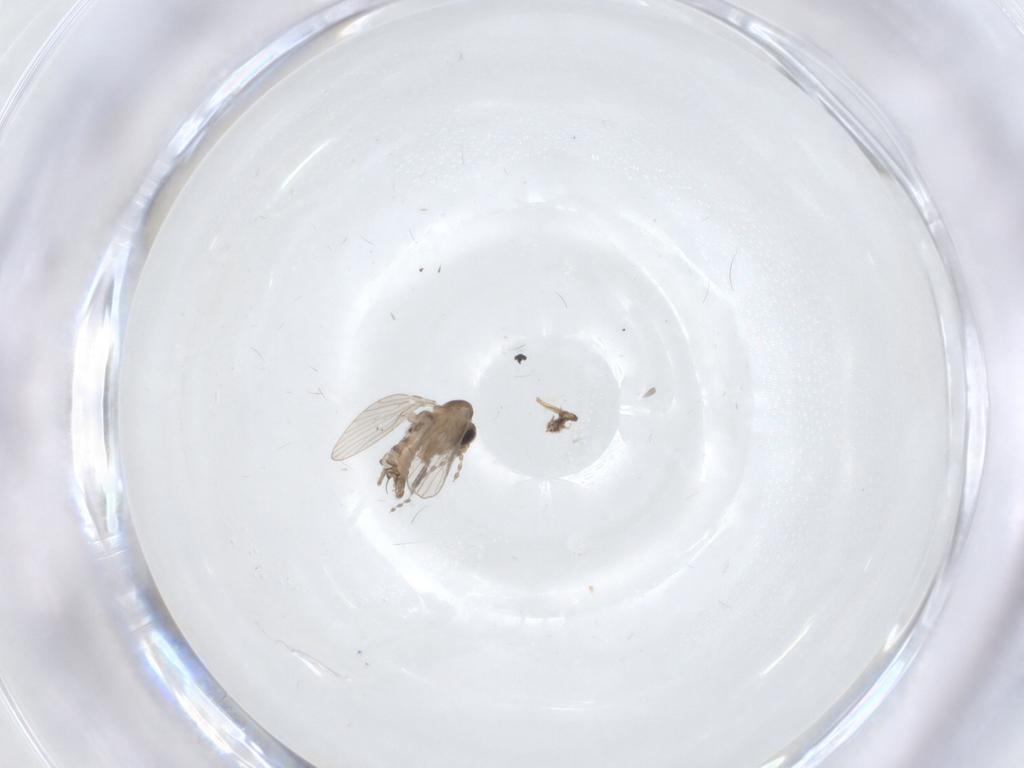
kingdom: Animalia
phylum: Arthropoda
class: Insecta
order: Diptera
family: Psychodidae
